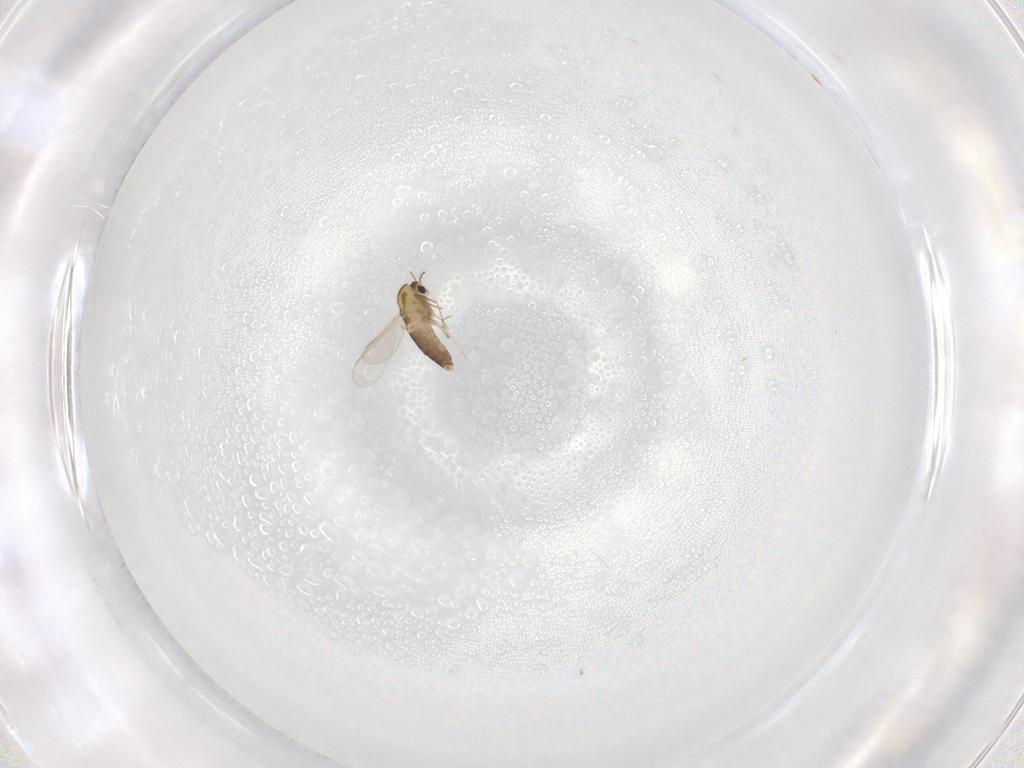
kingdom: Animalia
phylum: Arthropoda
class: Insecta
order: Diptera
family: Chironomidae
